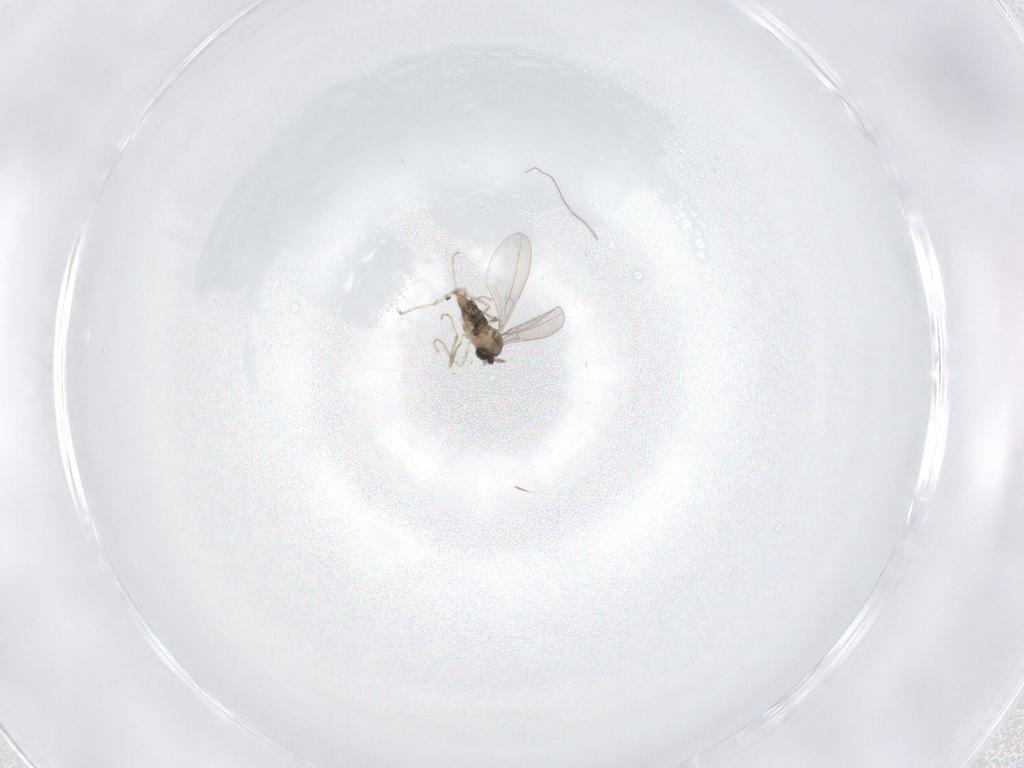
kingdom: Animalia
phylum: Arthropoda
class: Insecta
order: Diptera
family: Cecidomyiidae
